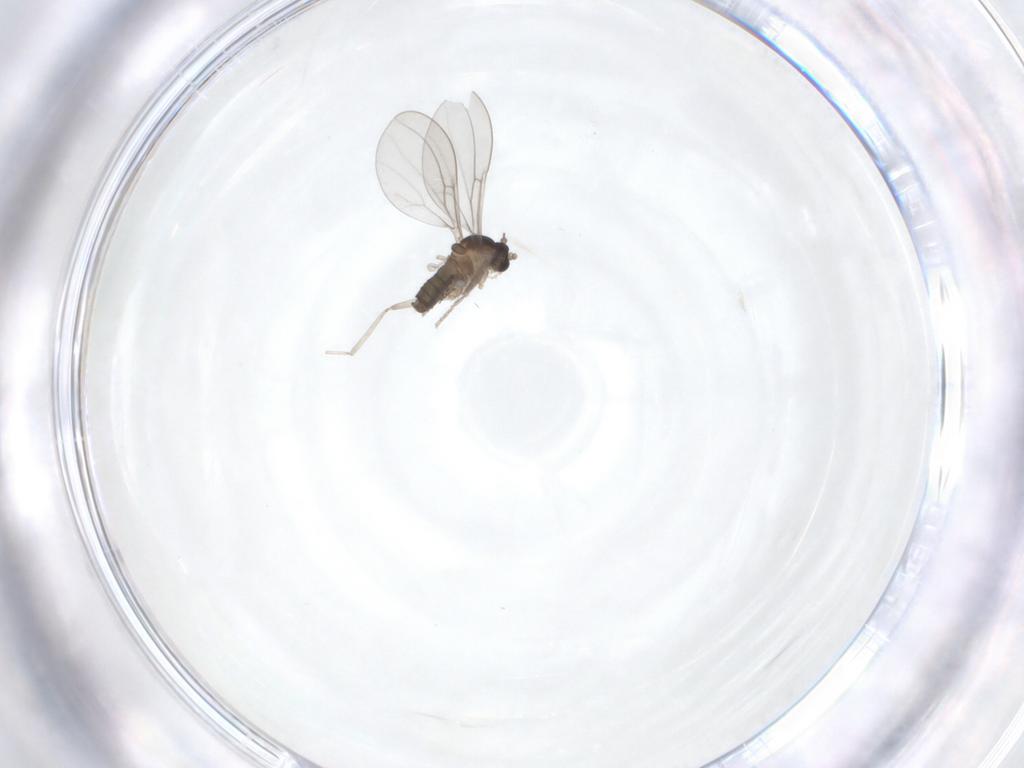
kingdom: Animalia
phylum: Arthropoda
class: Insecta
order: Diptera
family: Cecidomyiidae
